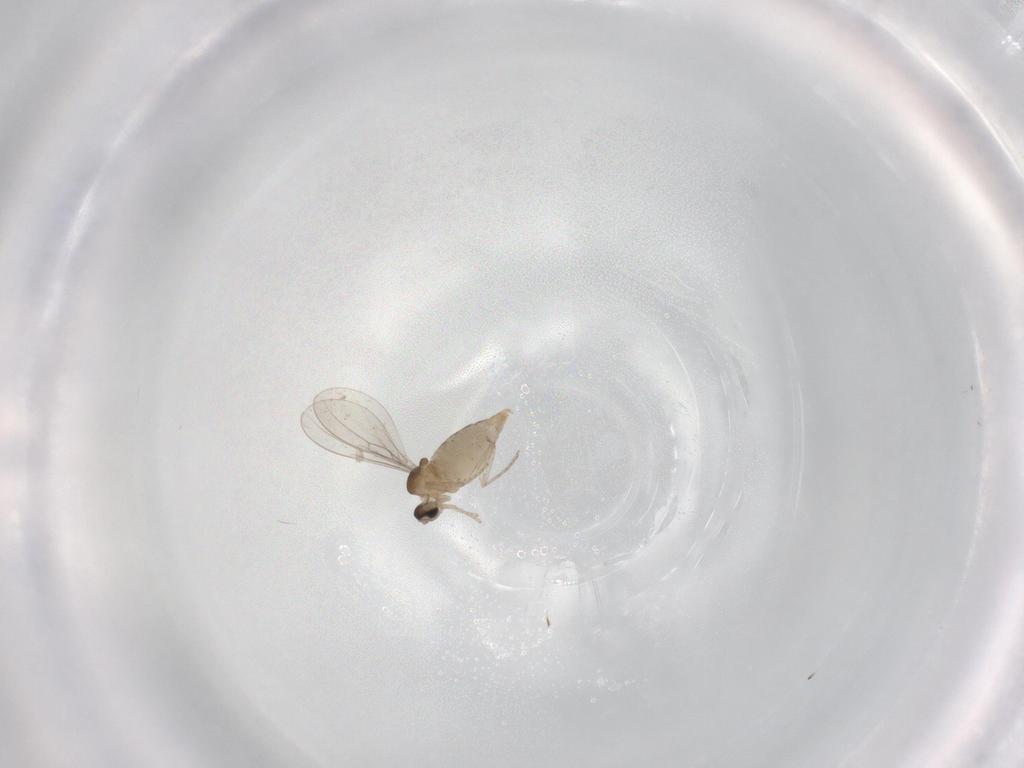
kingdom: Animalia
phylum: Arthropoda
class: Insecta
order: Diptera
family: Cecidomyiidae
